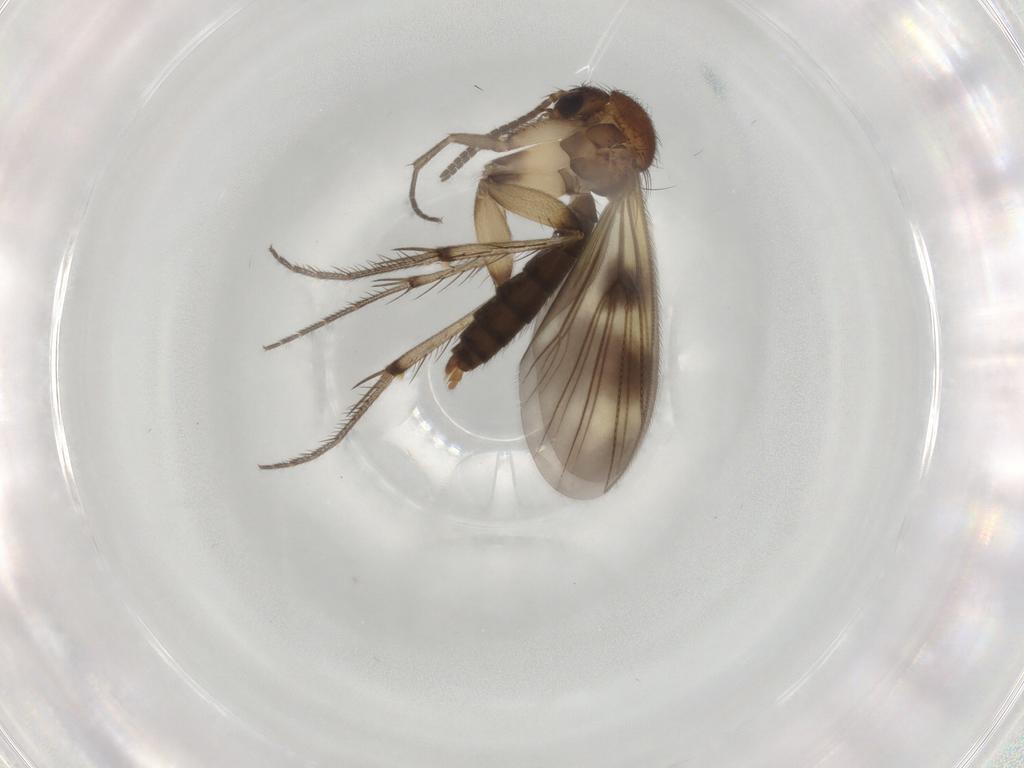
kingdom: Animalia
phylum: Arthropoda
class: Insecta
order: Diptera
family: Mycetophilidae
